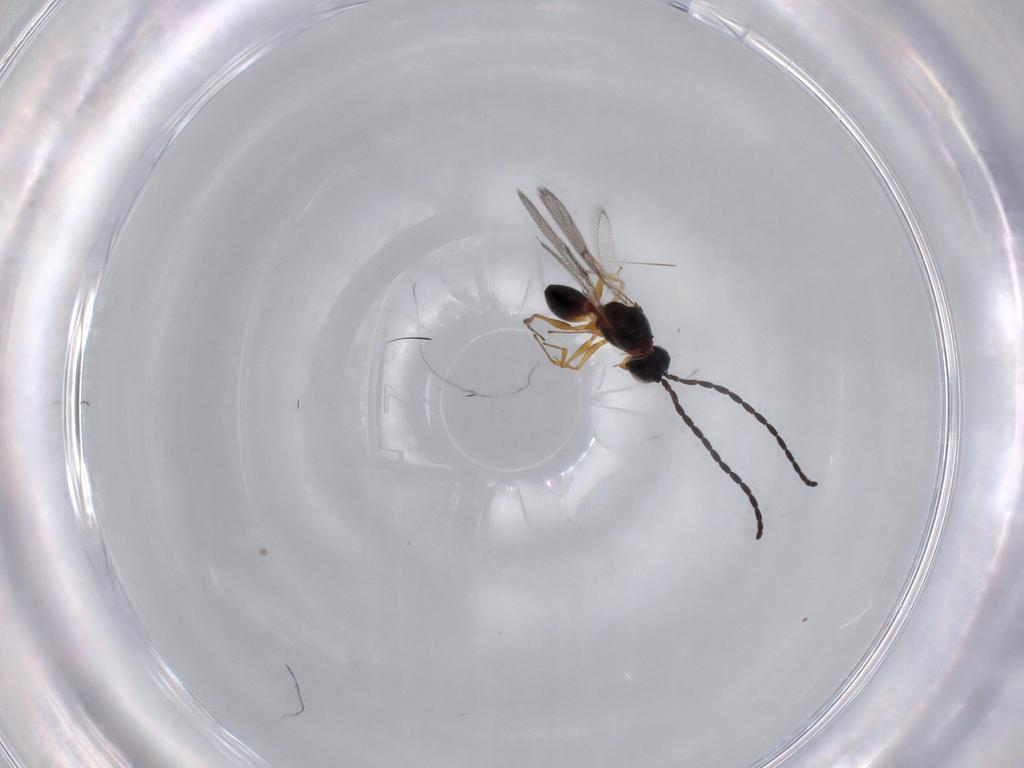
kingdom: Animalia
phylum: Arthropoda
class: Insecta
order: Hymenoptera
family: Figitidae
